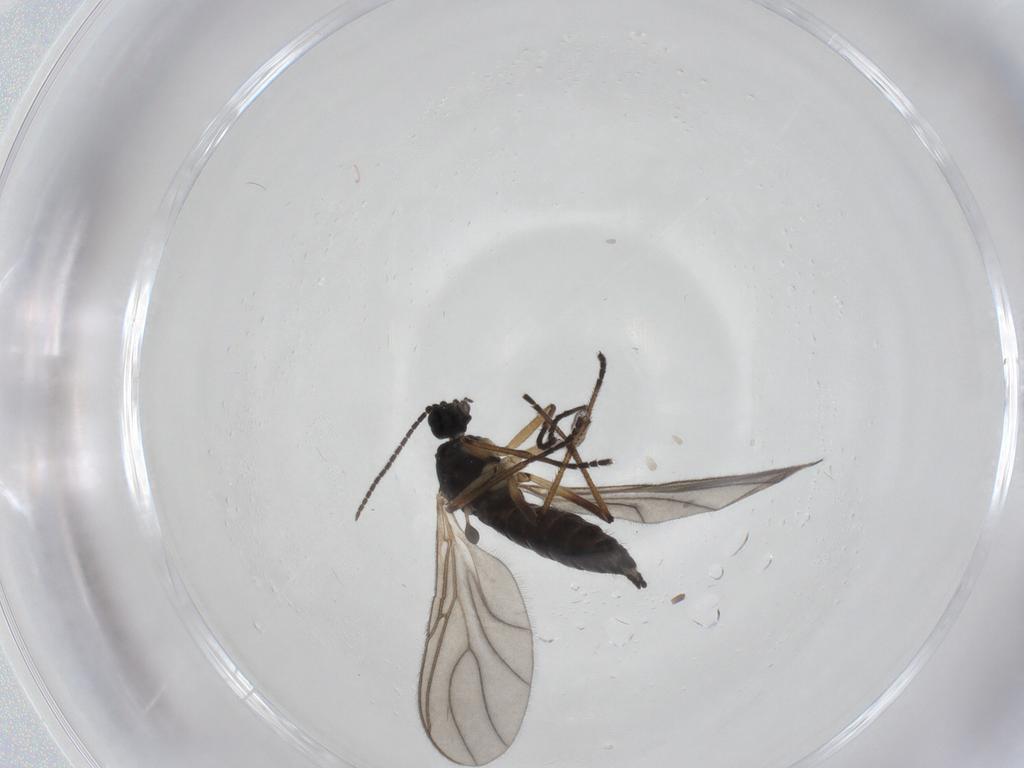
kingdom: Animalia
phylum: Arthropoda
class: Insecta
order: Diptera
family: Sciaridae
